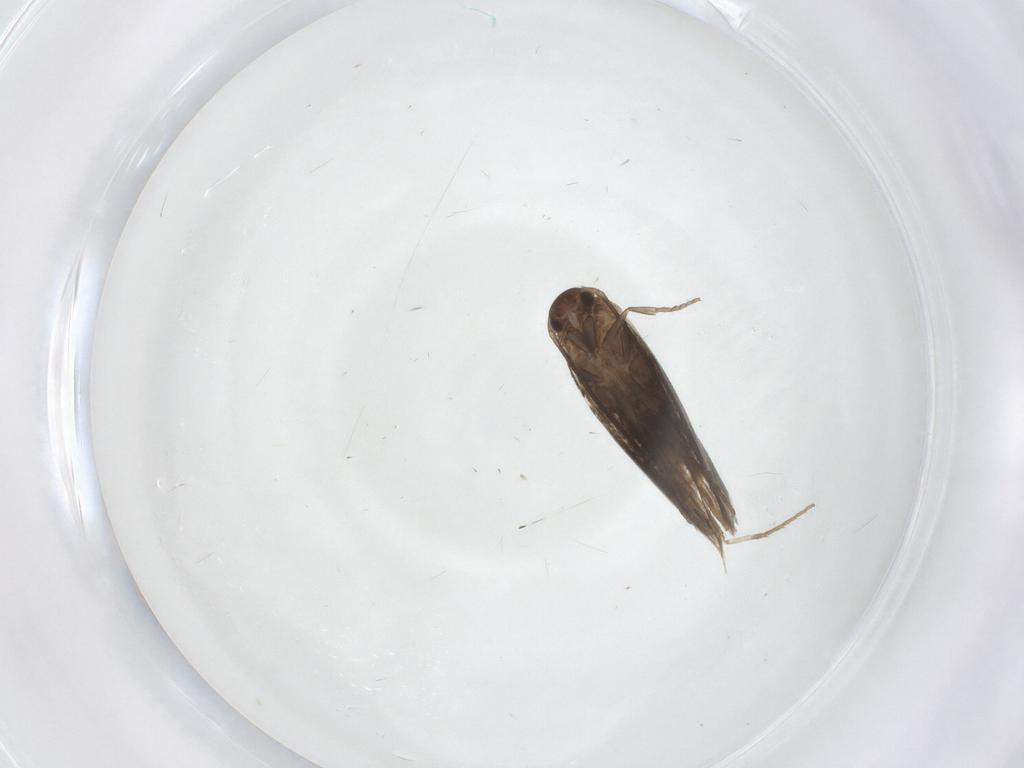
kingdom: Animalia
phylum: Arthropoda
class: Insecta
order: Lepidoptera
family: Elachistidae
